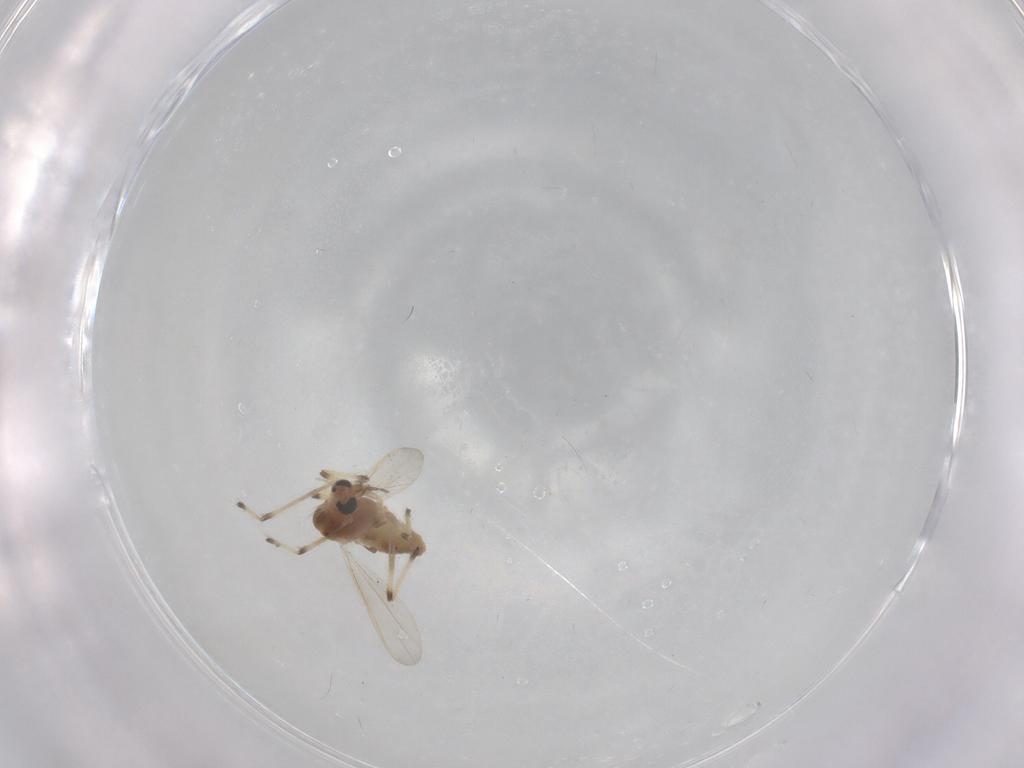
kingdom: Animalia
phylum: Arthropoda
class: Insecta
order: Diptera
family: Chironomidae
